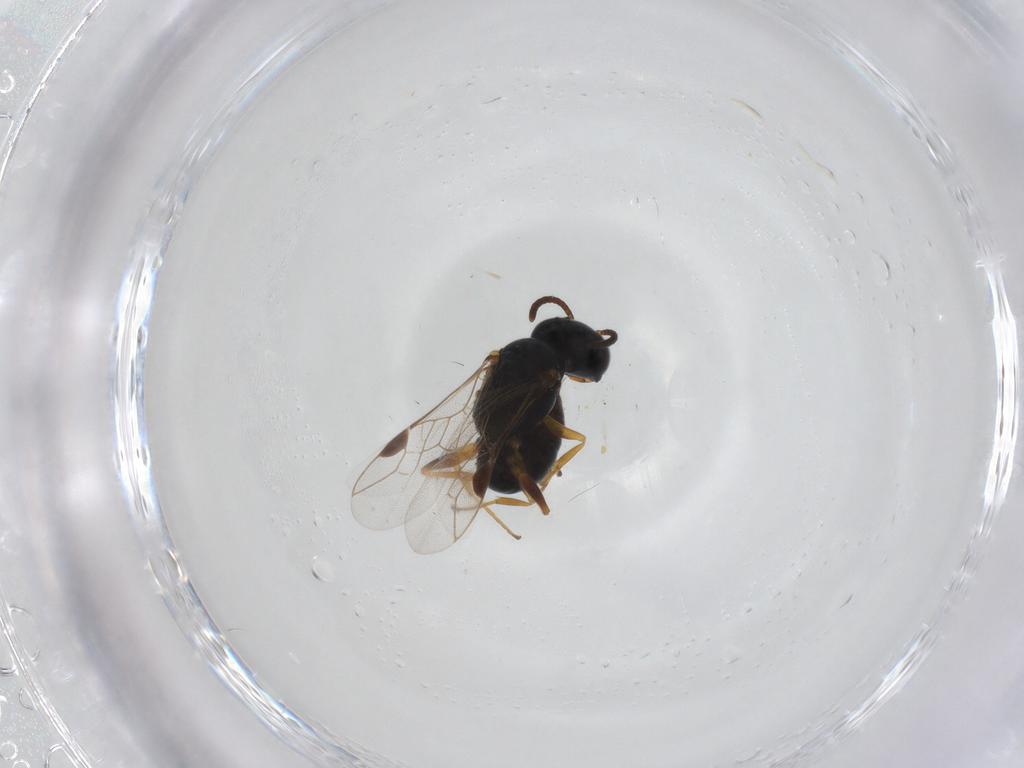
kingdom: Animalia
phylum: Arthropoda
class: Insecta
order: Hymenoptera
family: Crabronidae
